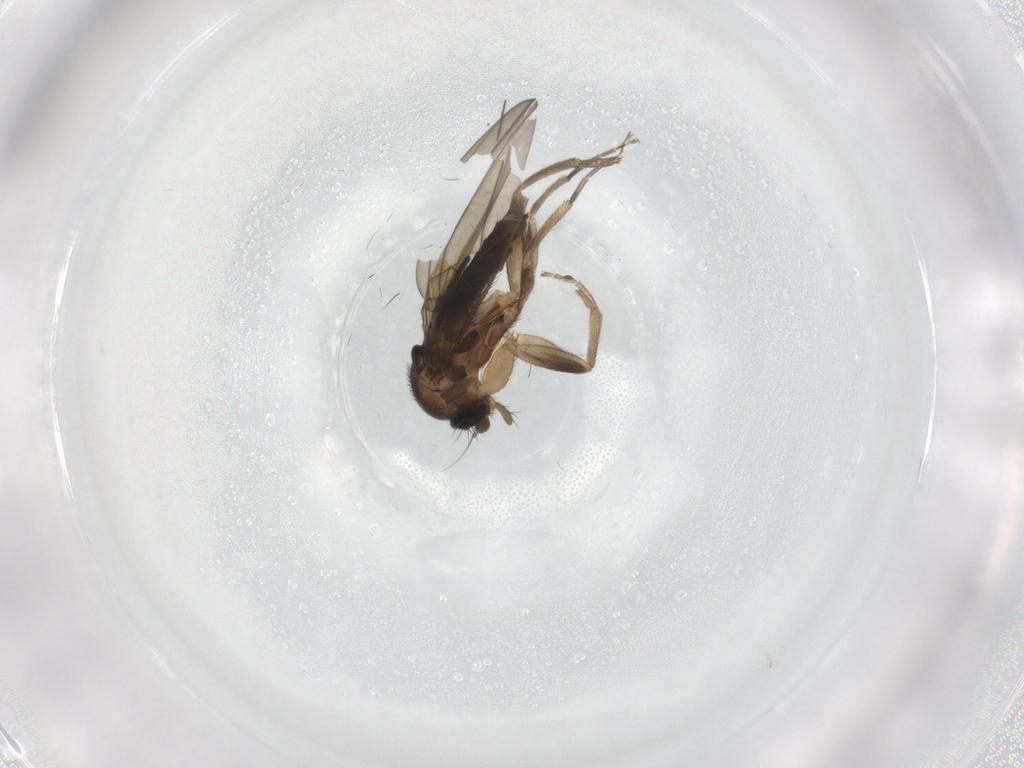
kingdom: Animalia
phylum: Arthropoda
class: Insecta
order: Diptera
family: Phoridae
